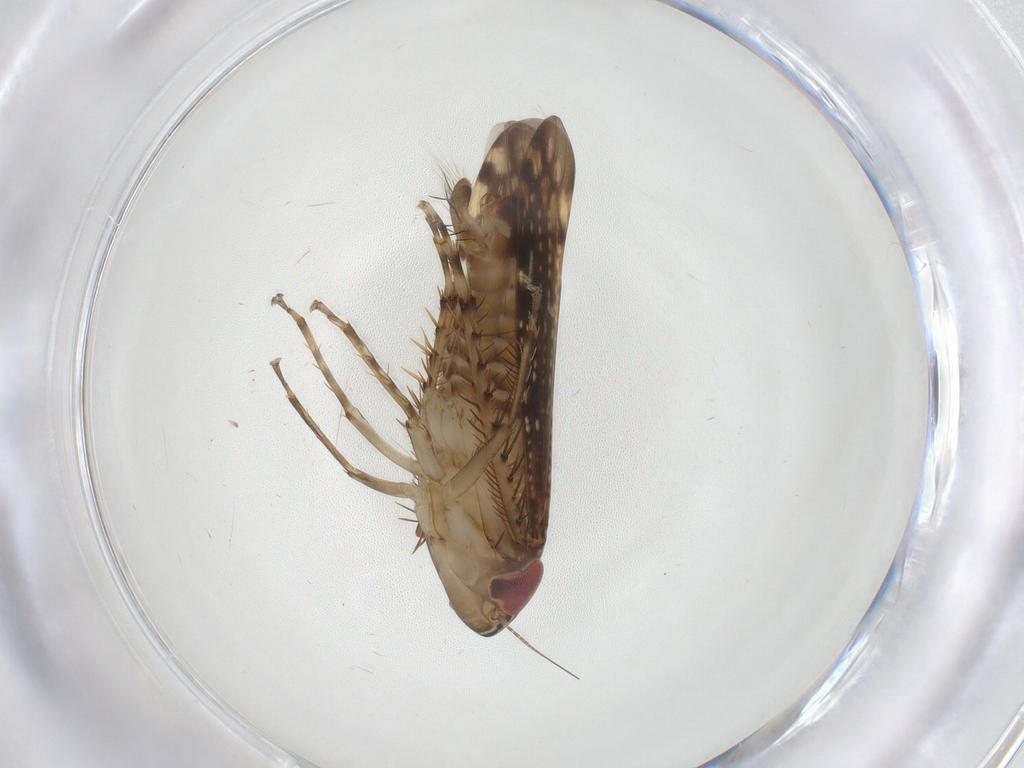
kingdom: Animalia
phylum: Arthropoda
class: Insecta
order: Hemiptera
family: Cicadellidae
